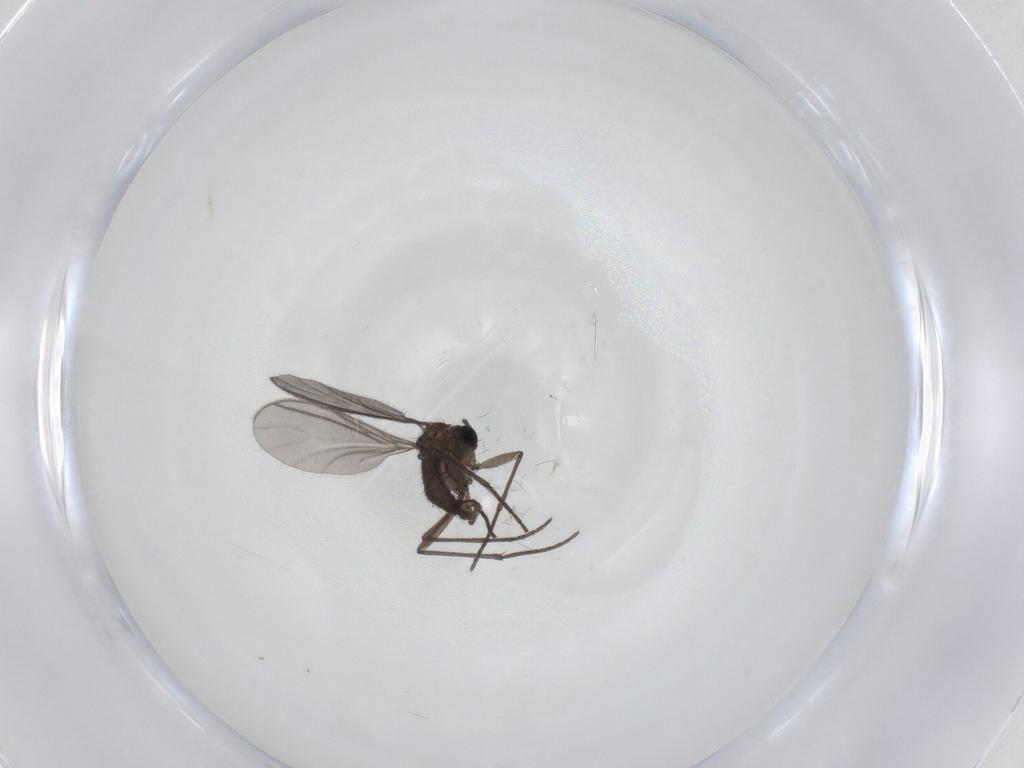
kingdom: Animalia
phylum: Arthropoda
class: Insecta
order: Diptera
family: Sciaridae
